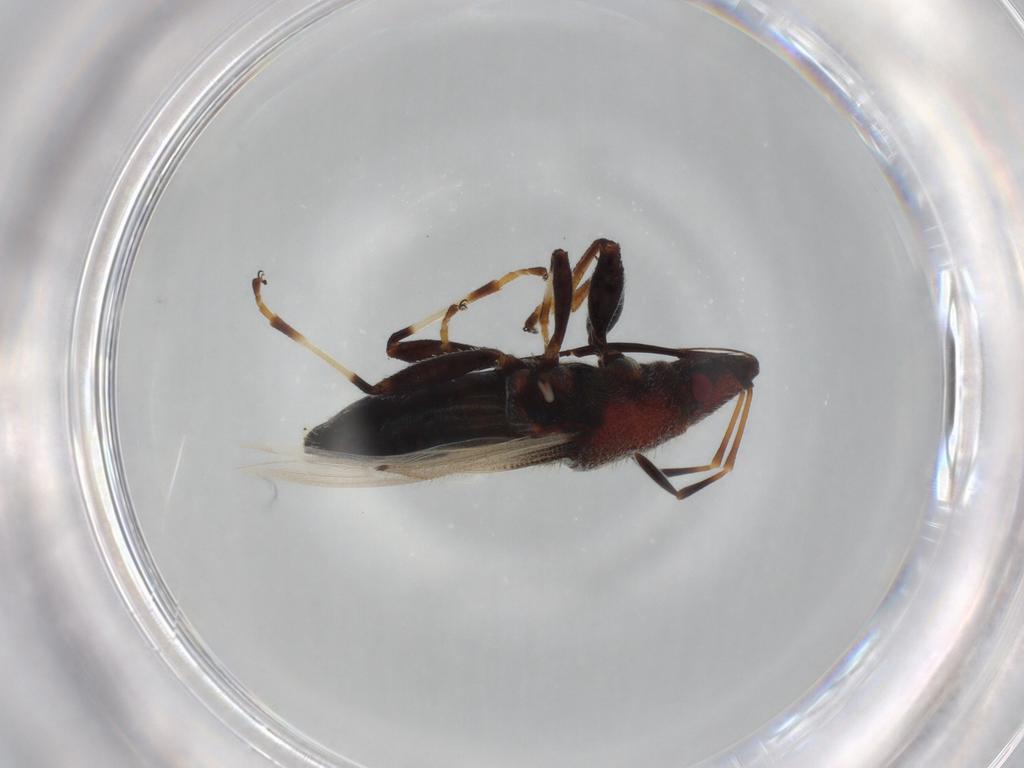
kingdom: Animalia
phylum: Arthropoda
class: Insecta
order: Hemiptera
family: Oxycarenidae
